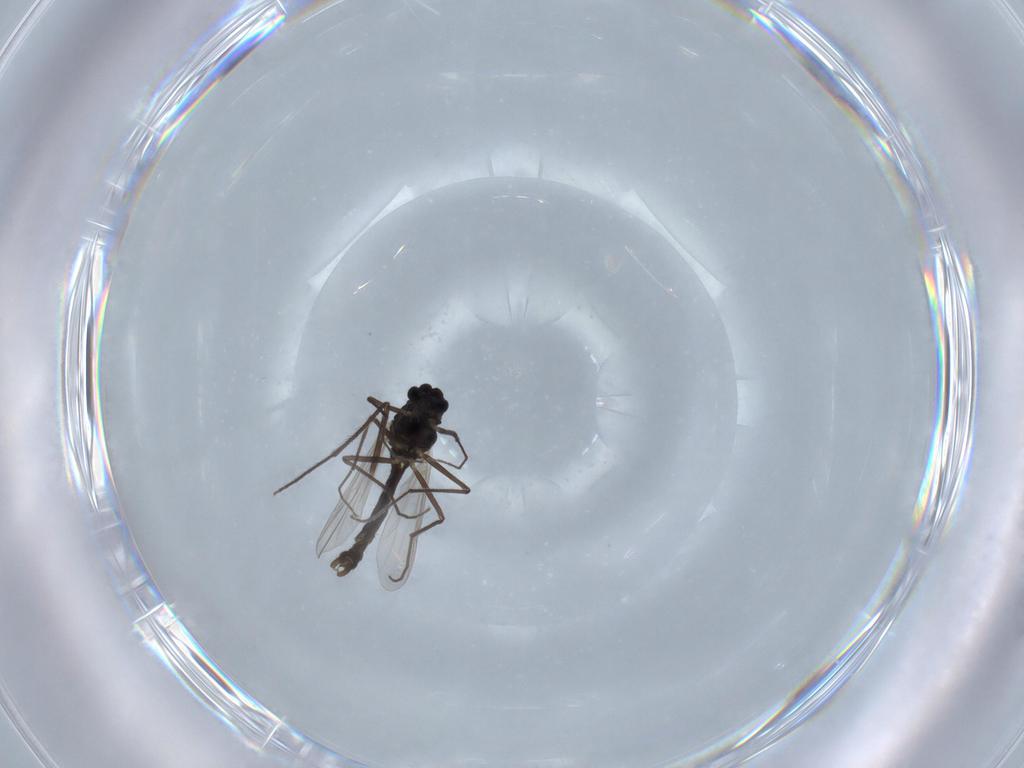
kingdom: Animalia
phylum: Arthropoda
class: Insecta
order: Diptera
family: Chironomidae
